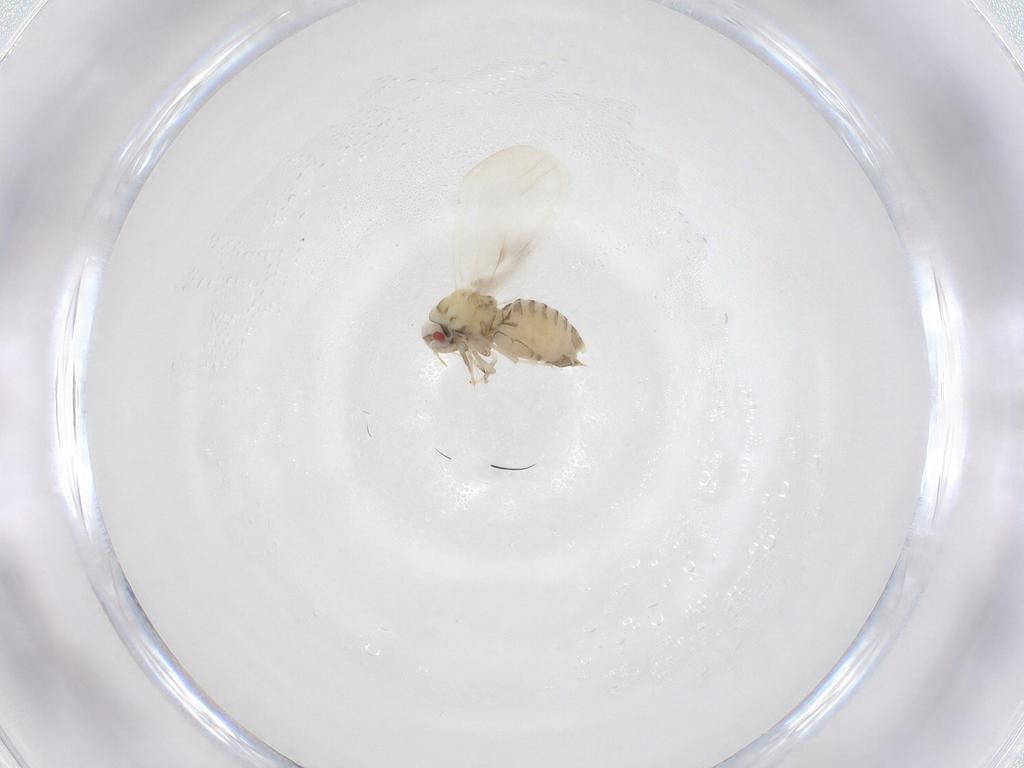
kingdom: Animalia
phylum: Arthropoda
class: Insecta
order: Hemiptera
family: Aleyrodidae
